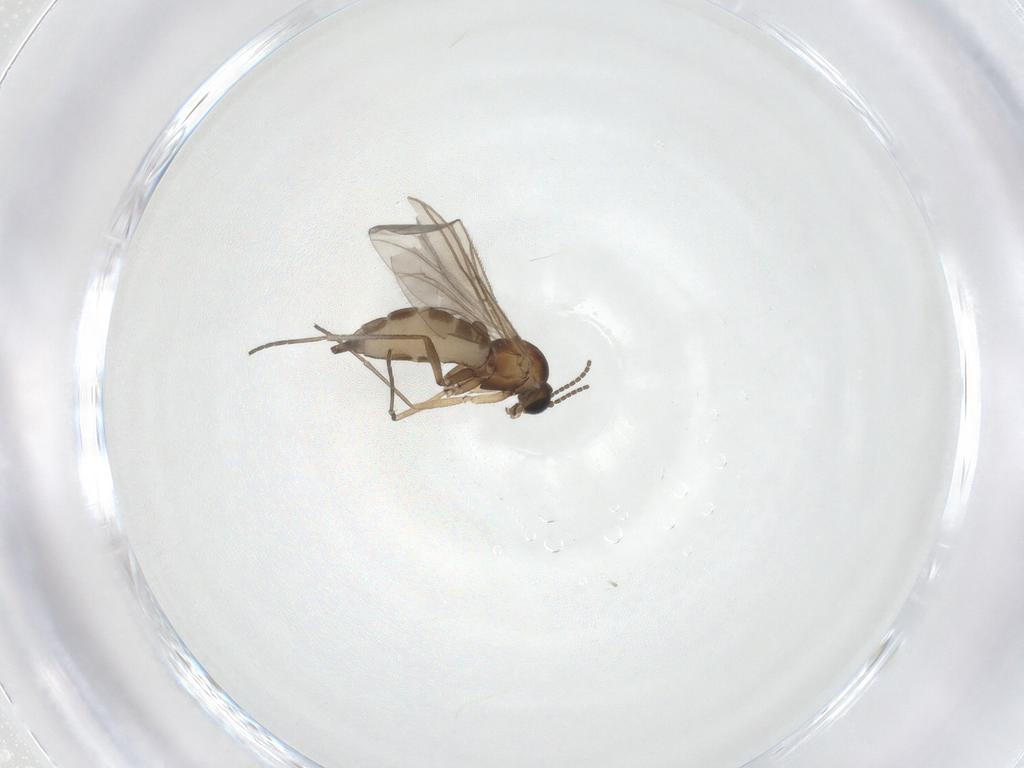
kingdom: Animalia
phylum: Arthropoda
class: Insecta
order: Diptera
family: Sciaridae
